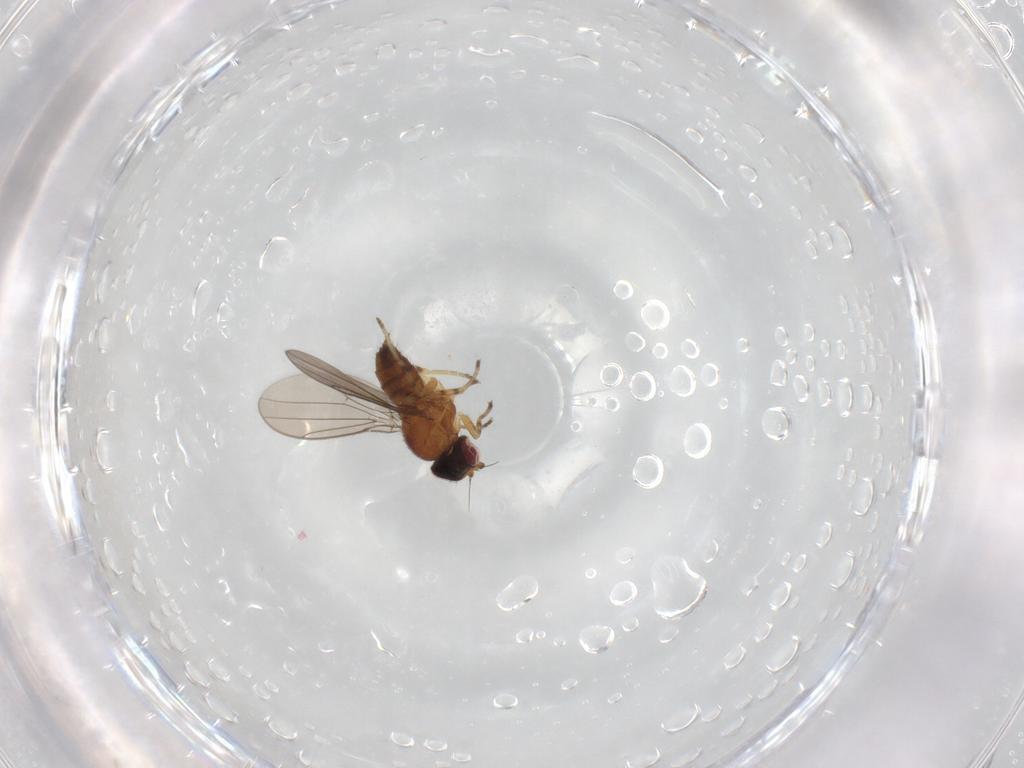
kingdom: Animalia
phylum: Arthropoda
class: Insecta
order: Diptera
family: Chloropidae
